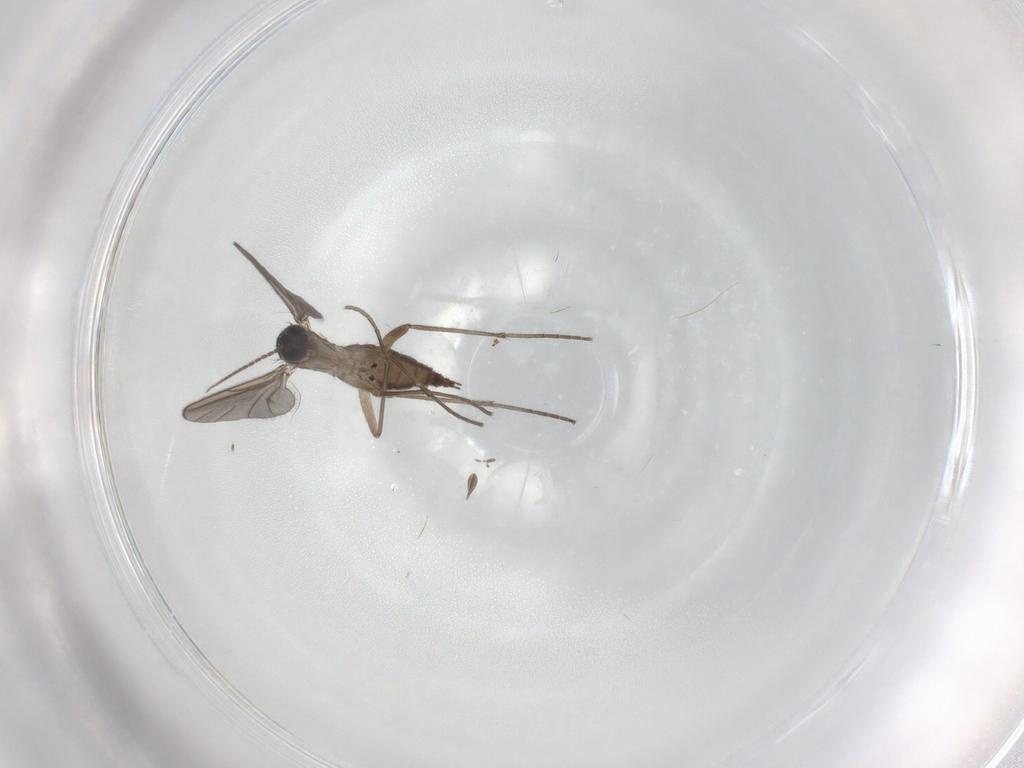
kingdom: Animalia
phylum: Arthropoda
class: Insecta
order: Diptera
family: Sciaridae
